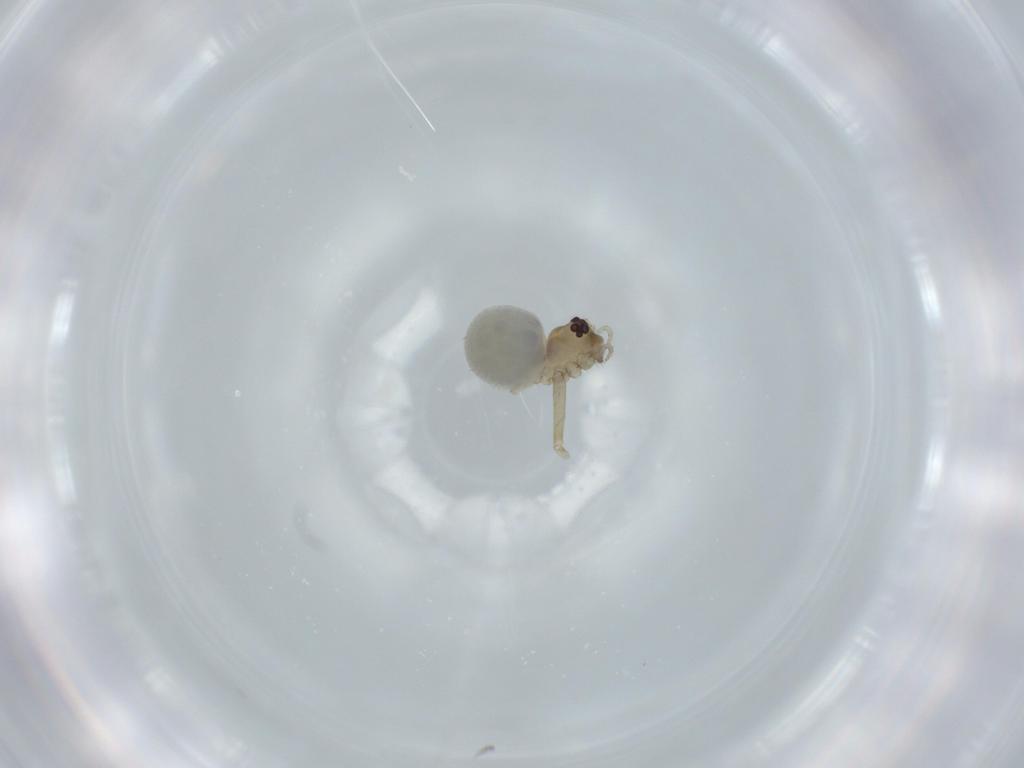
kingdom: Animalia
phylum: Arthropoda
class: Arachnida
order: Araneae
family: Pholcidae
